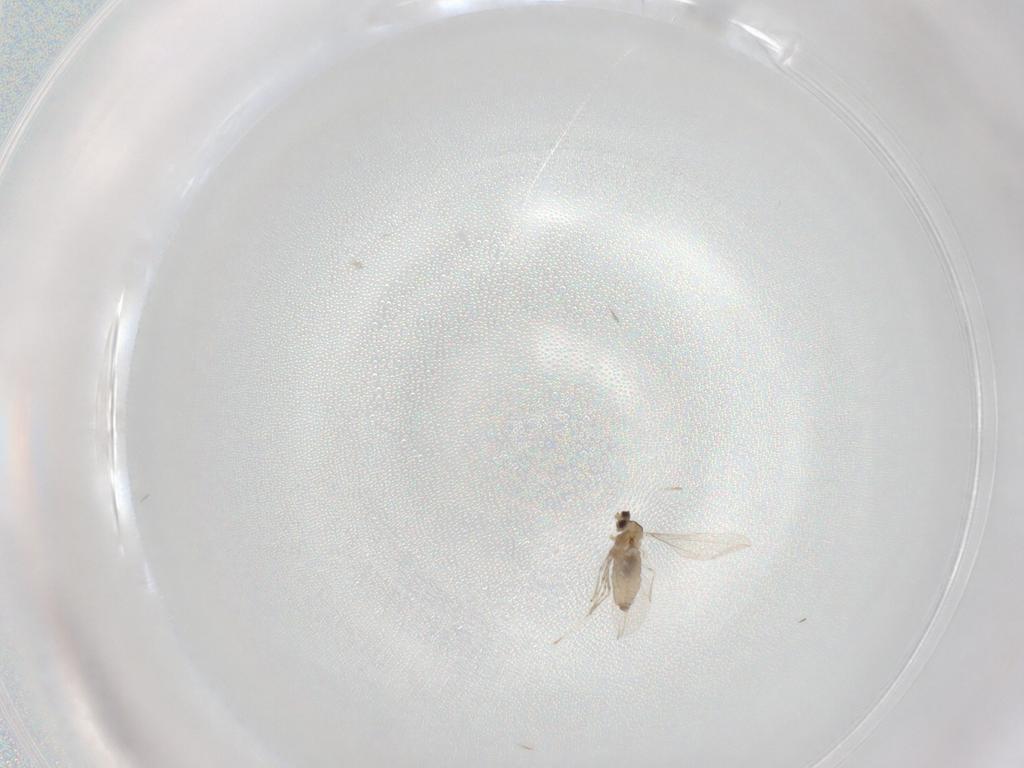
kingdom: Animalia
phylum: Arthropoda
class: Insecta
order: Diptera
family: Cecidomyiidae
